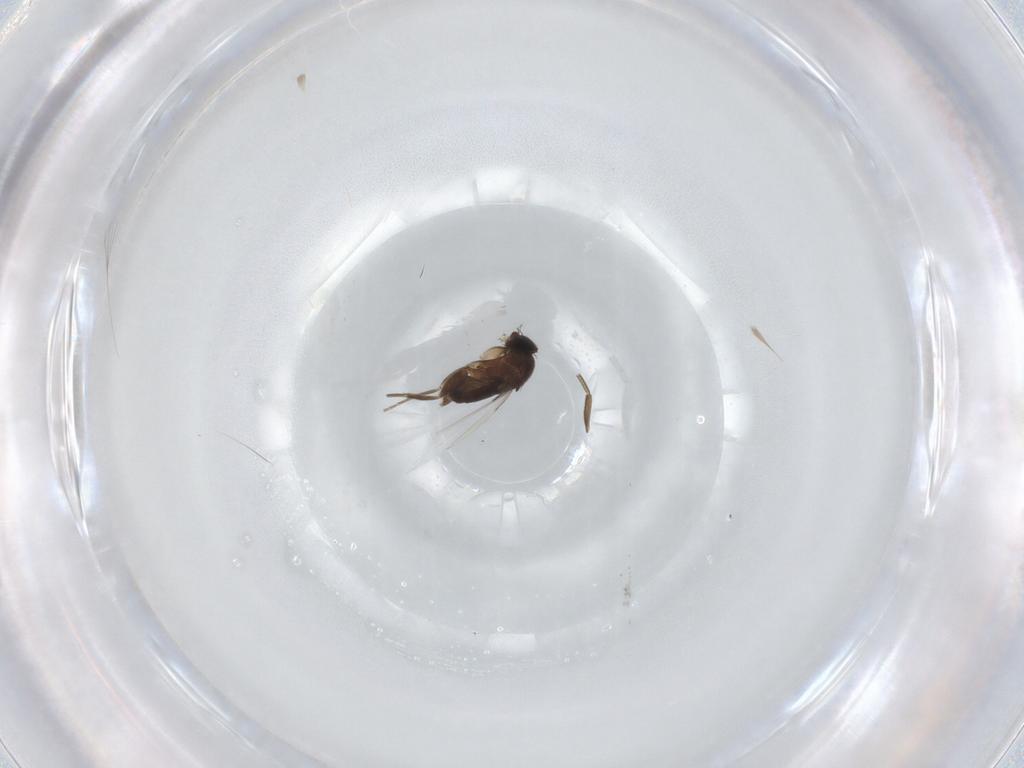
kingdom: Animalia
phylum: Arthropoda
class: Insecta
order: Diptera
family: Phoridae
